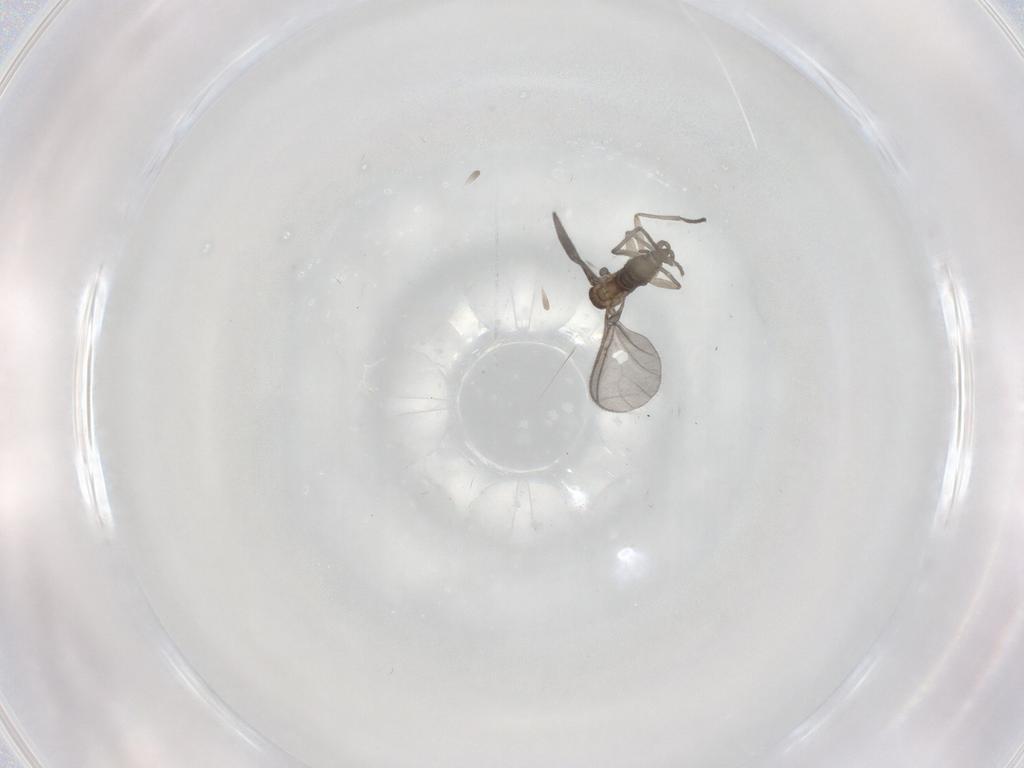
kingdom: Animalia
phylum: Arthropoda
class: Insecta
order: Diptera
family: Sciaridae
